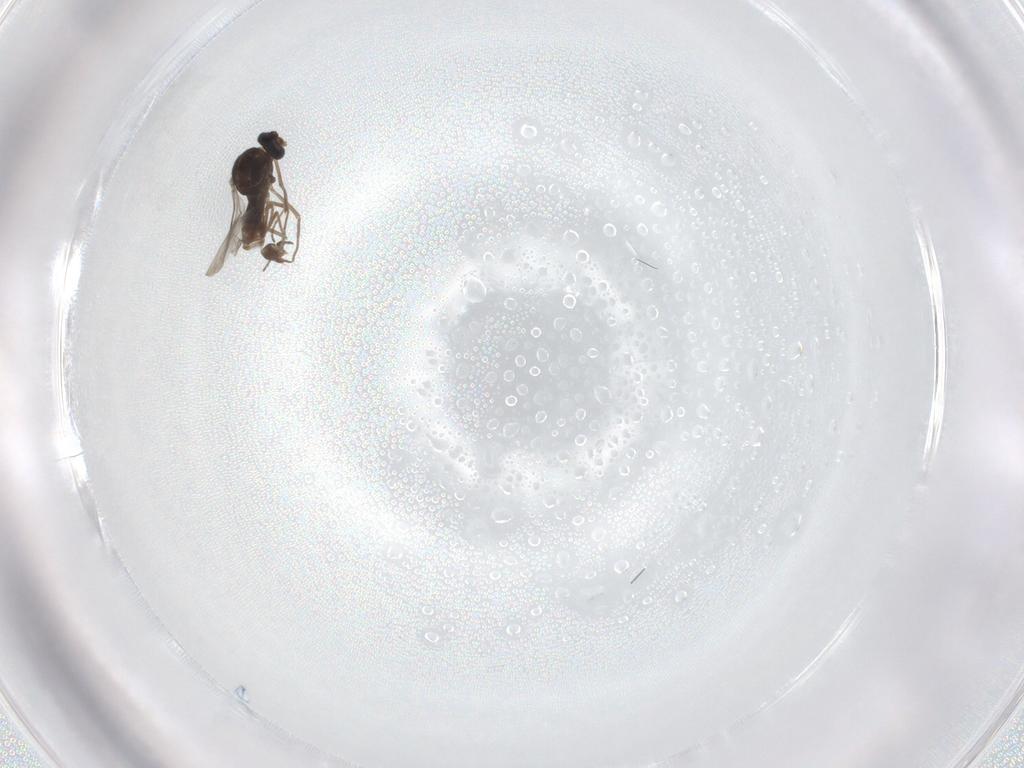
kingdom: Animalia
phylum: Arthropoda
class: Insecta
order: Diptera
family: Cecidomyiidae
